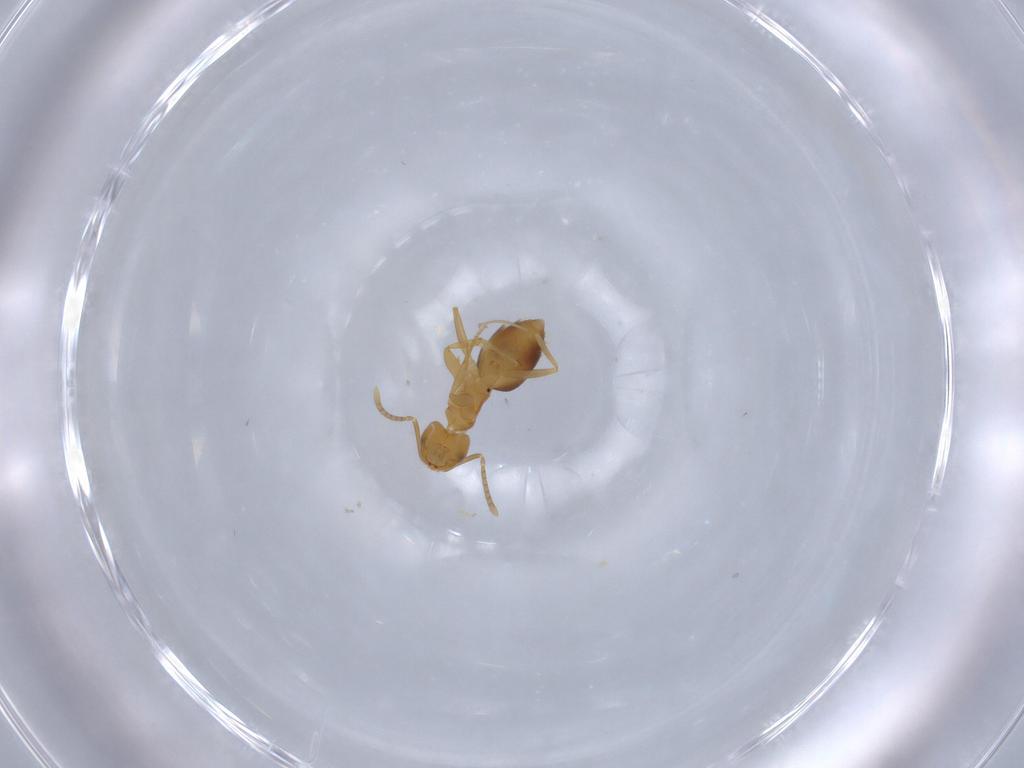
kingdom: Animalia
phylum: Arthropoda
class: Insecta
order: Hymenoptera
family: Formicidae
